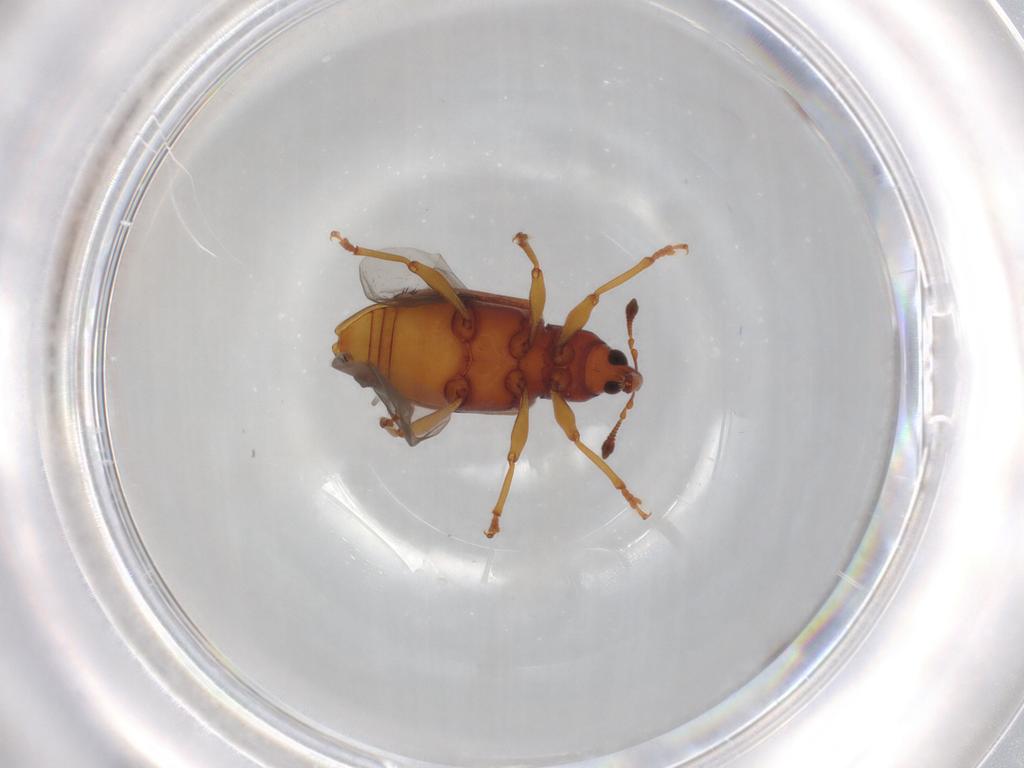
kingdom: Animalia
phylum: Arthropoda
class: Insecta
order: Coleoptera
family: Curculionidae
